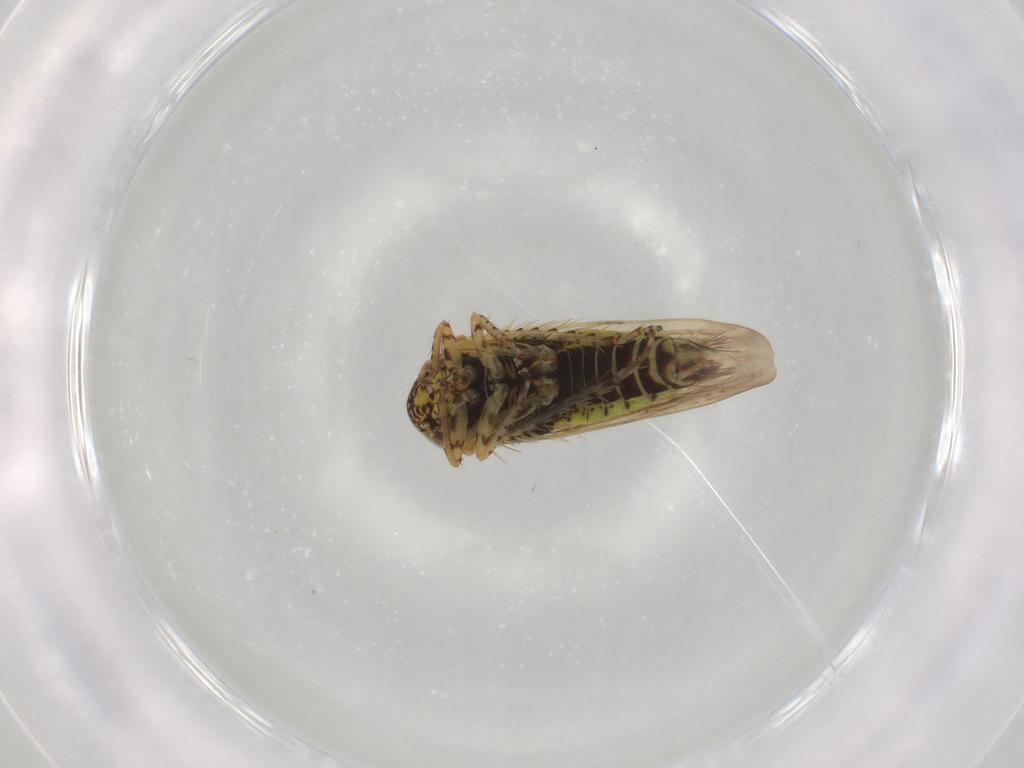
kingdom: Animalia
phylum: Arthropoda
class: Insecta
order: Hemiptera
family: Cicadellidae
